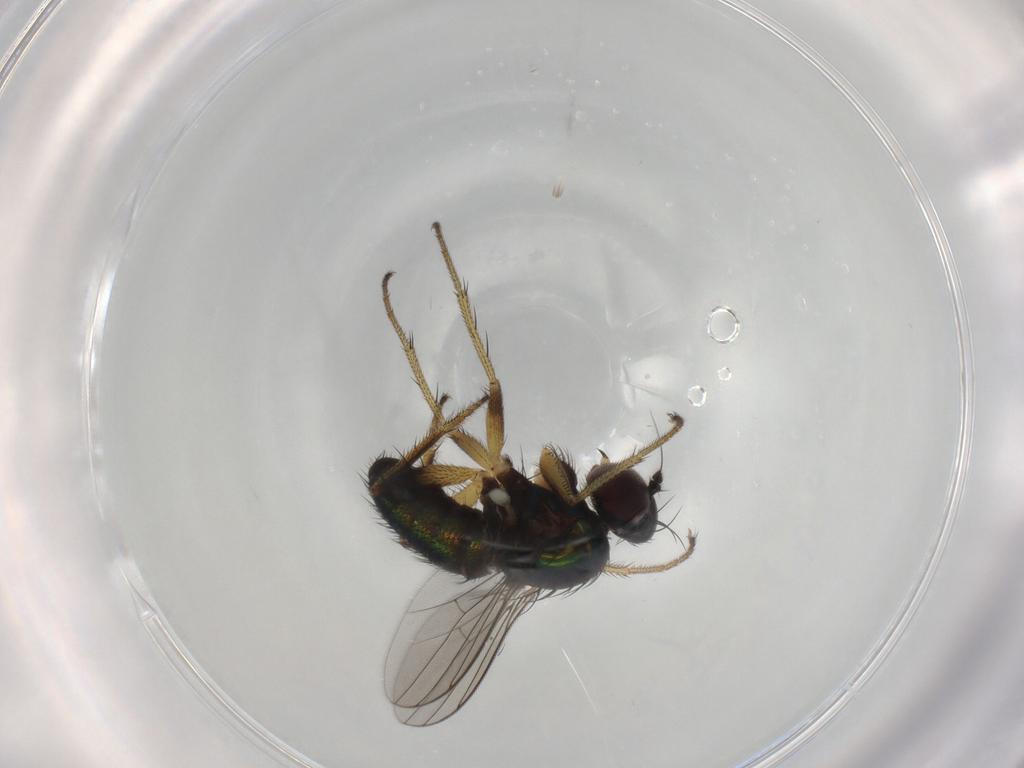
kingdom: Animalia
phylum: Arthropoda
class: Insecta
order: Diptera
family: Dolichopodidae
